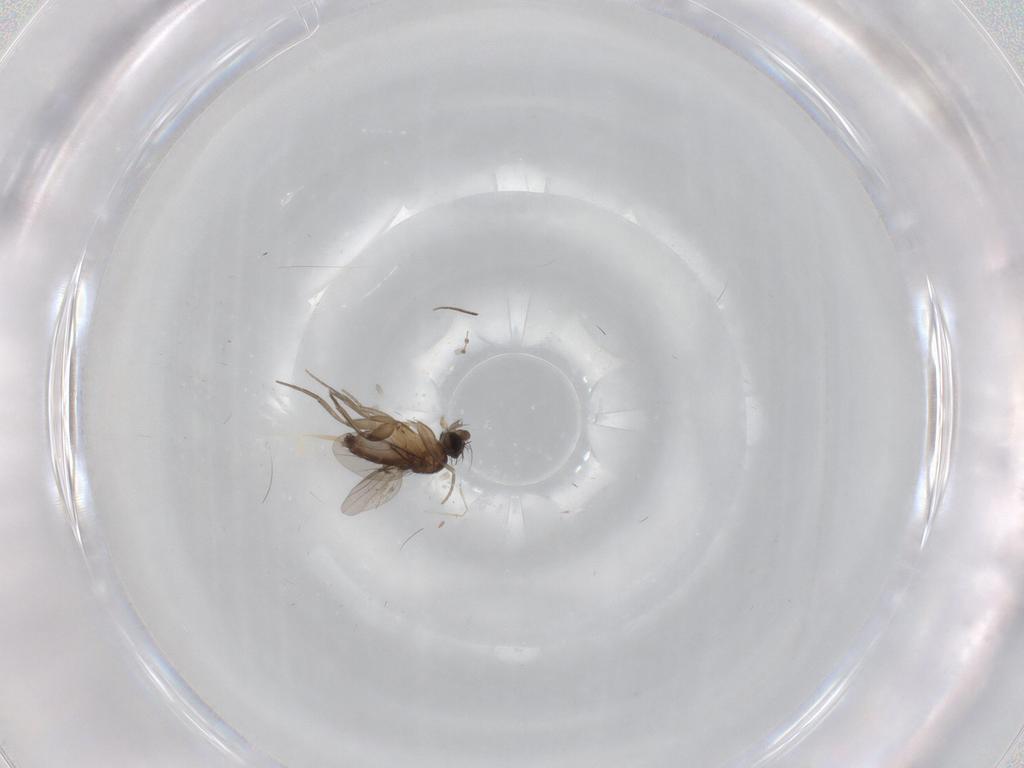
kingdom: Animalia
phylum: Arthropoda
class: Insecta
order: Diptera
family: Phoridae
